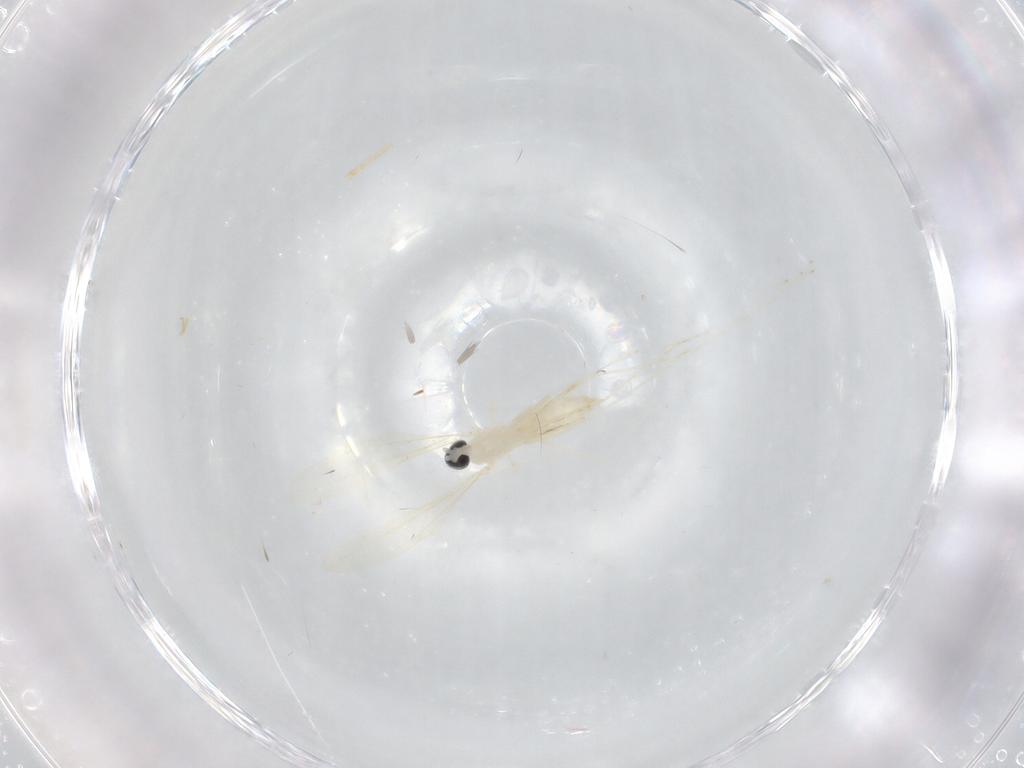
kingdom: Animalia
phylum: Arthropoda
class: Insecta
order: Diptera
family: Cecidomyiidae
